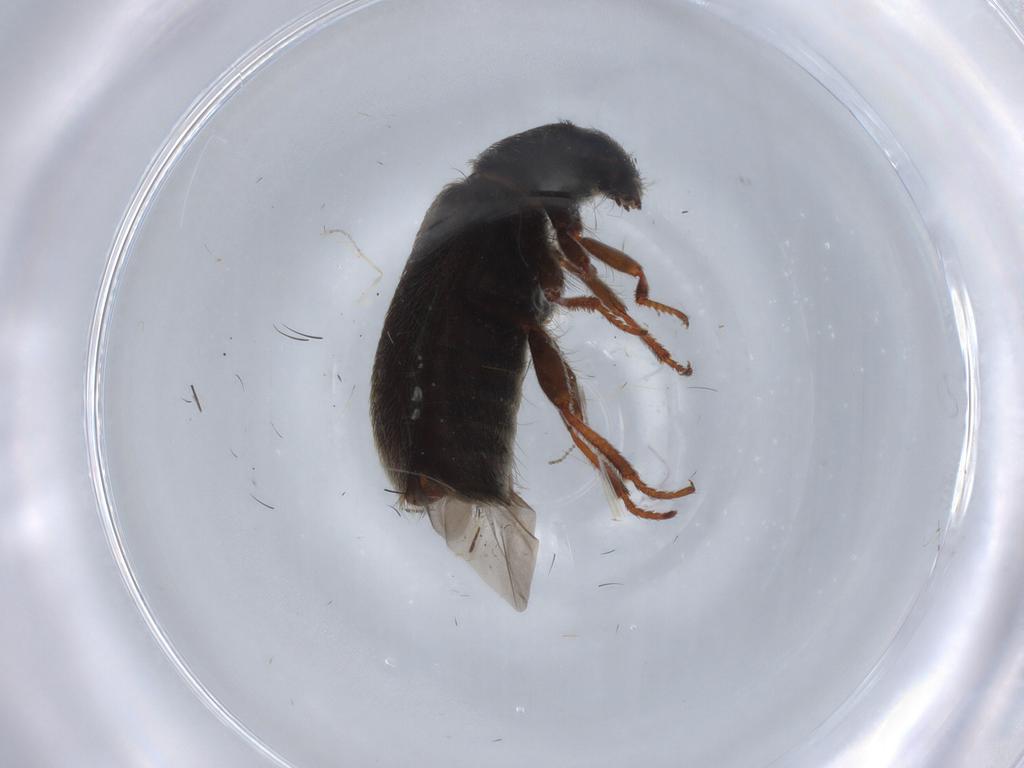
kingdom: Animalia
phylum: Arthropoda
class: Insecta
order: Coleoptera
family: Melyridae
